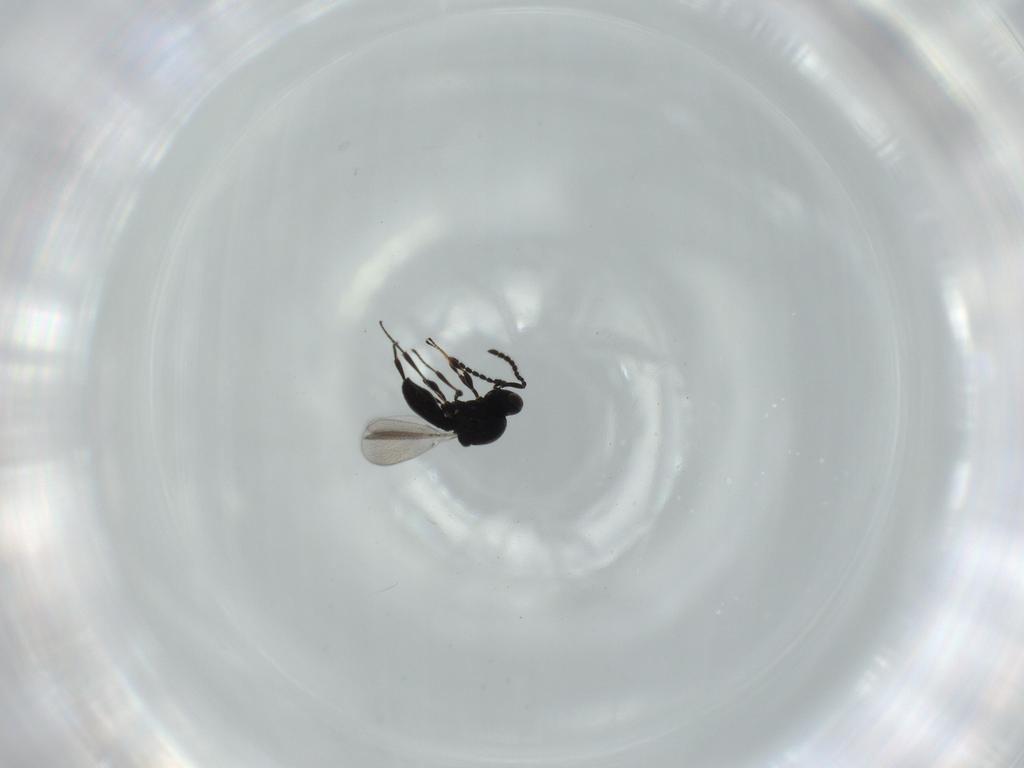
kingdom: Animalia
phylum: Arthropoda
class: Insecta
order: Hymenoptera
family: Platygastridae
